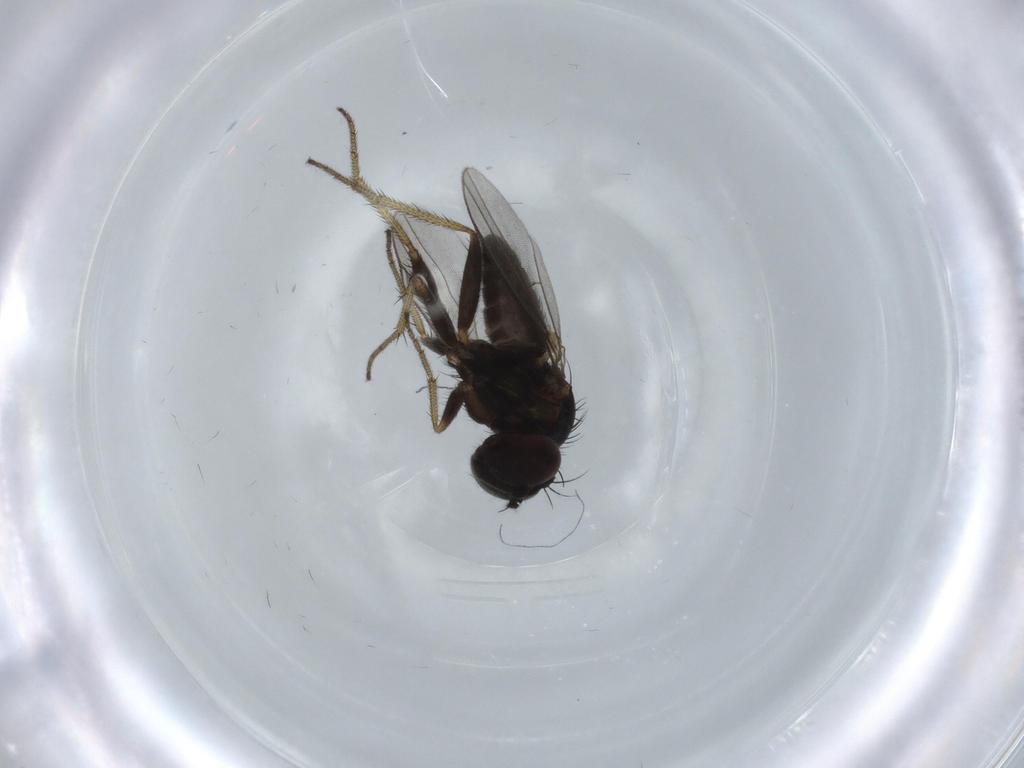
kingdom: Animalia
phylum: Arthropoda
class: Insecta
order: Diptera
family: Dolichopodidae
